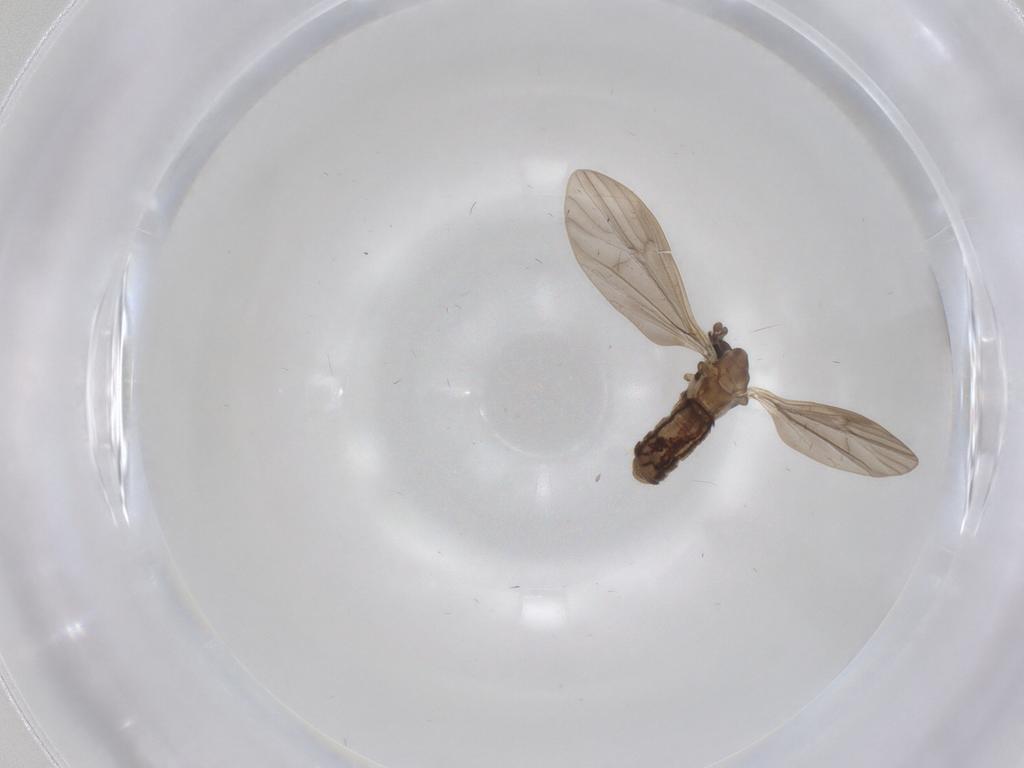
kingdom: Animalia
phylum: Arthropoda
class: Insecta
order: Diptera
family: Limoniidae
